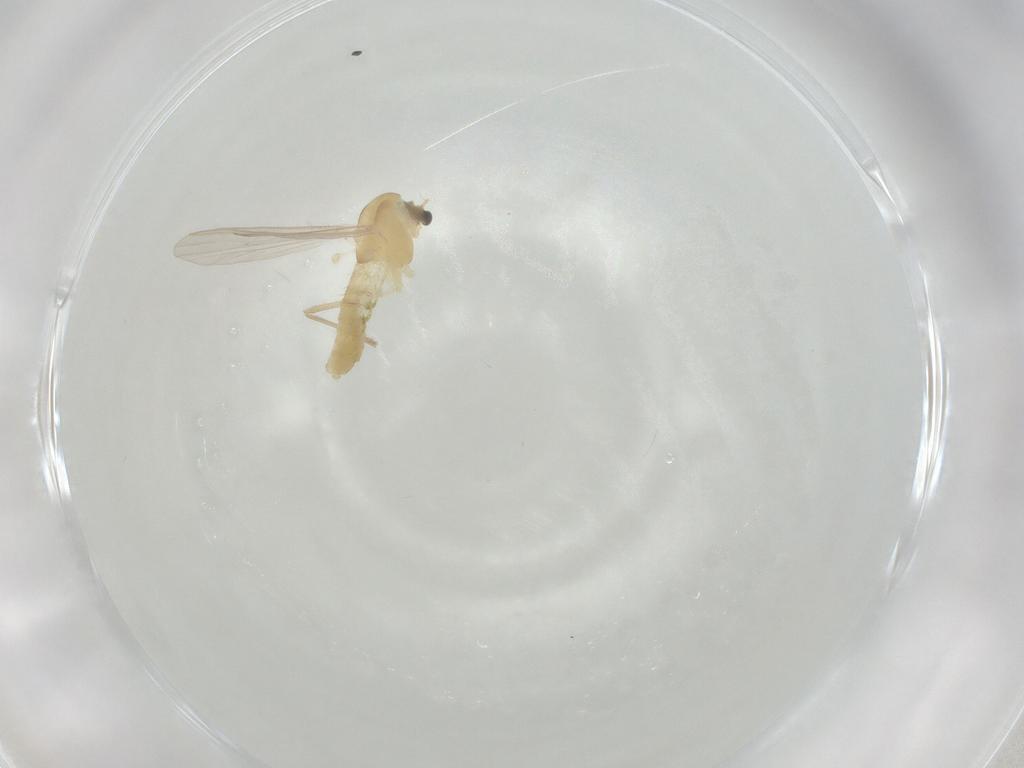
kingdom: Animalia
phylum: Arthropoda
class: Insecta
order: Diptera
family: Chironomidae
